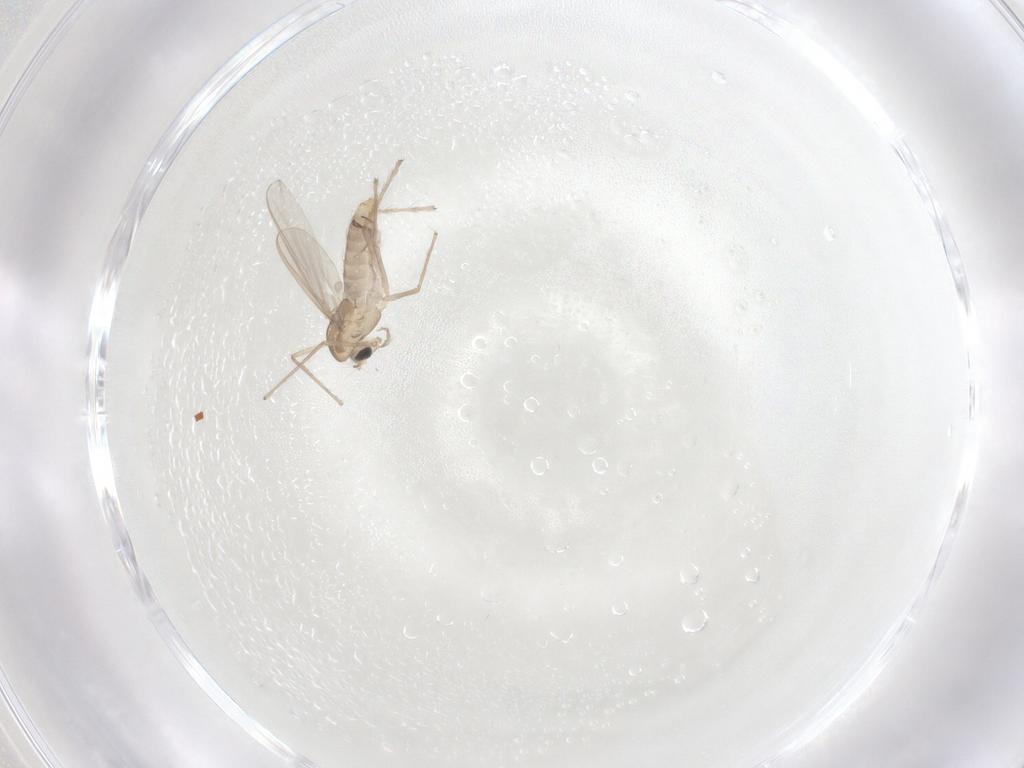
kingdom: Animalia
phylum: Arthropoda
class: Insecta
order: Diptera
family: Chironomidae
